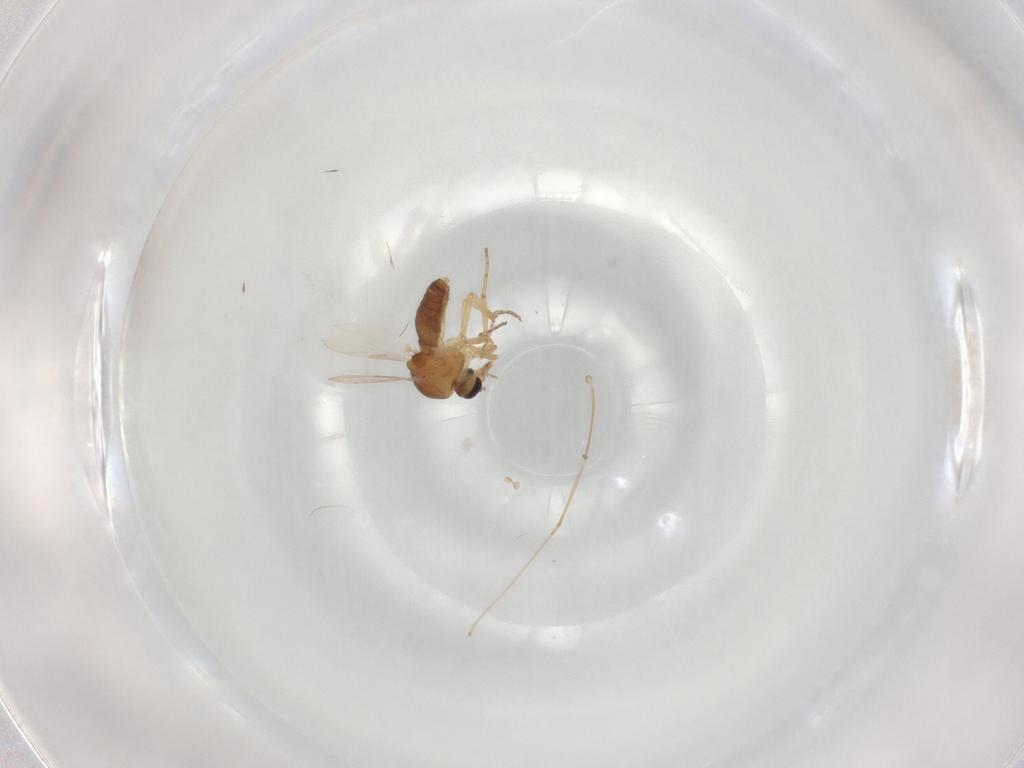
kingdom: Animalia
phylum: Arthropoda
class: Insecta
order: Diptera
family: Ceratopogonidae
